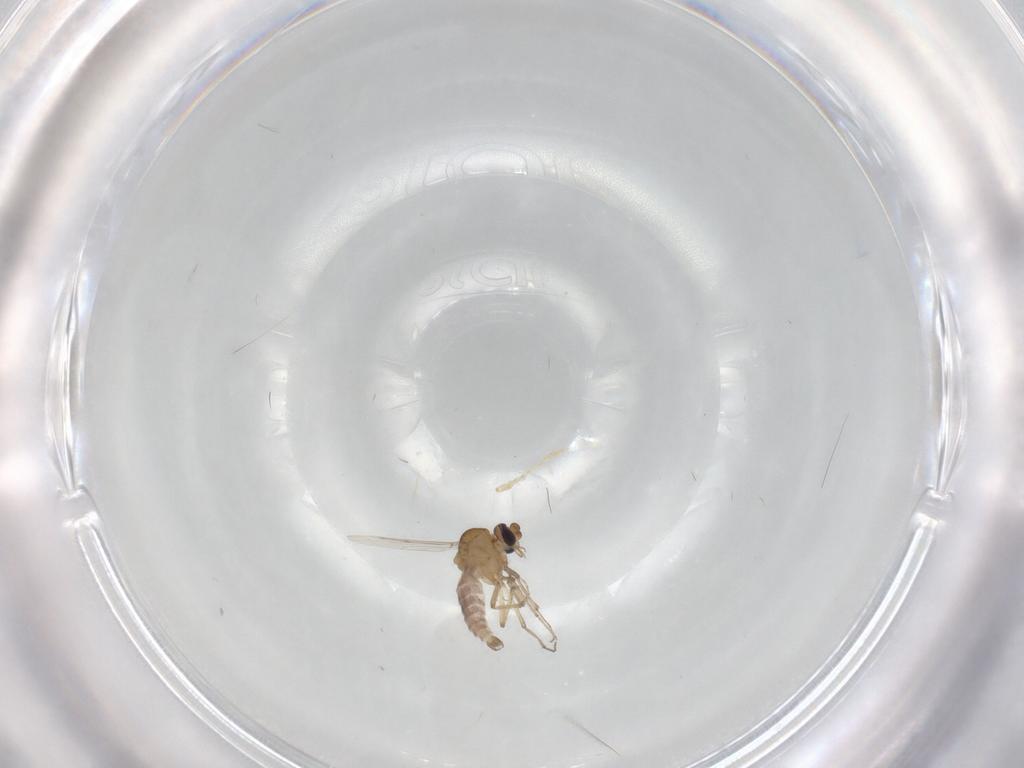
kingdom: Animalia
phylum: Arthropoda
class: Insecta
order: Diptera
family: Ceratopogonidae
